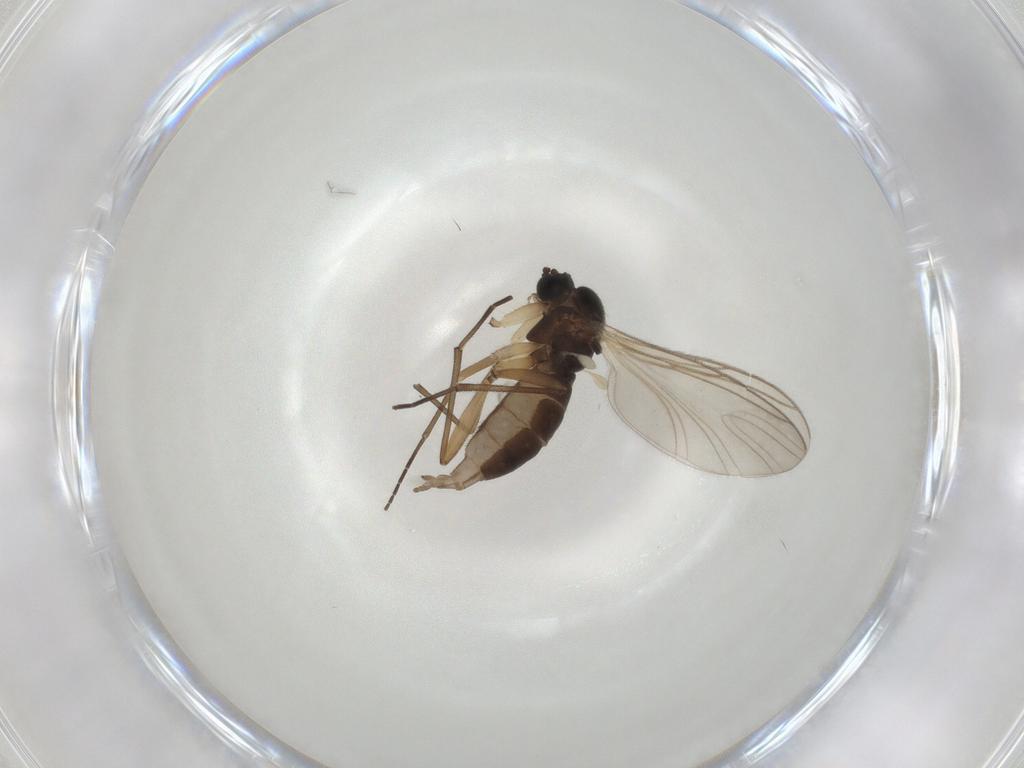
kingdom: Animalia
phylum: Arthropoda
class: Insecta
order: Diptera
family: Sciaridae
